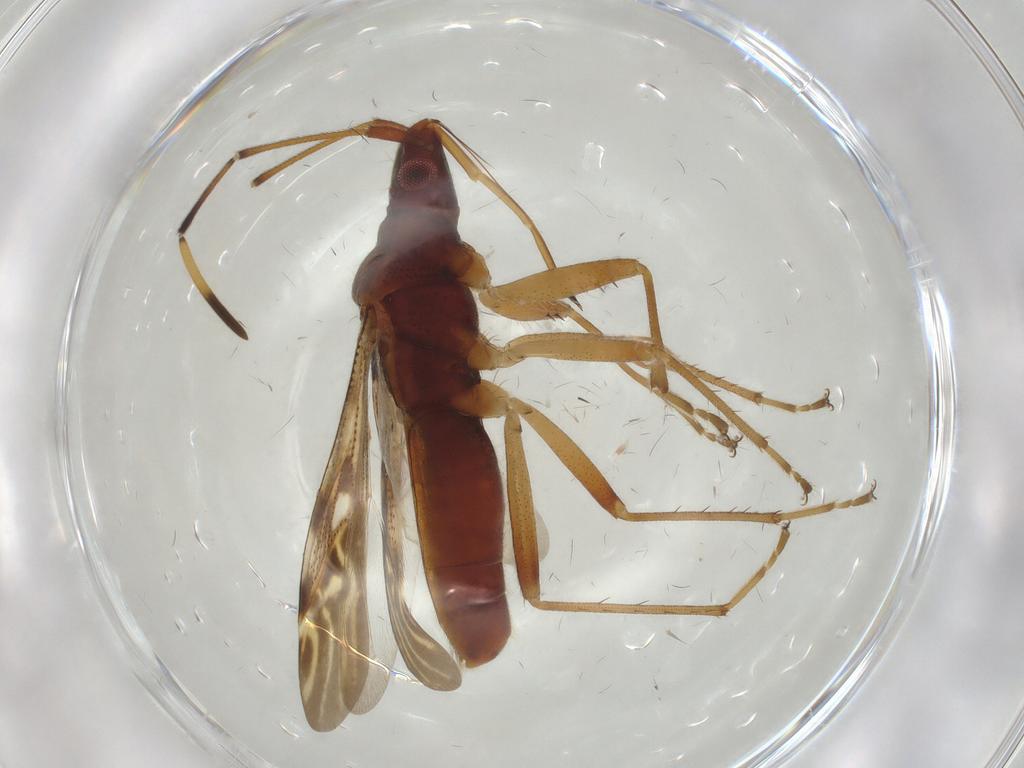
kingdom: Animalia
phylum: Arthropoda
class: Insecta
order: Hemiptera
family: Rhyparochromidae
